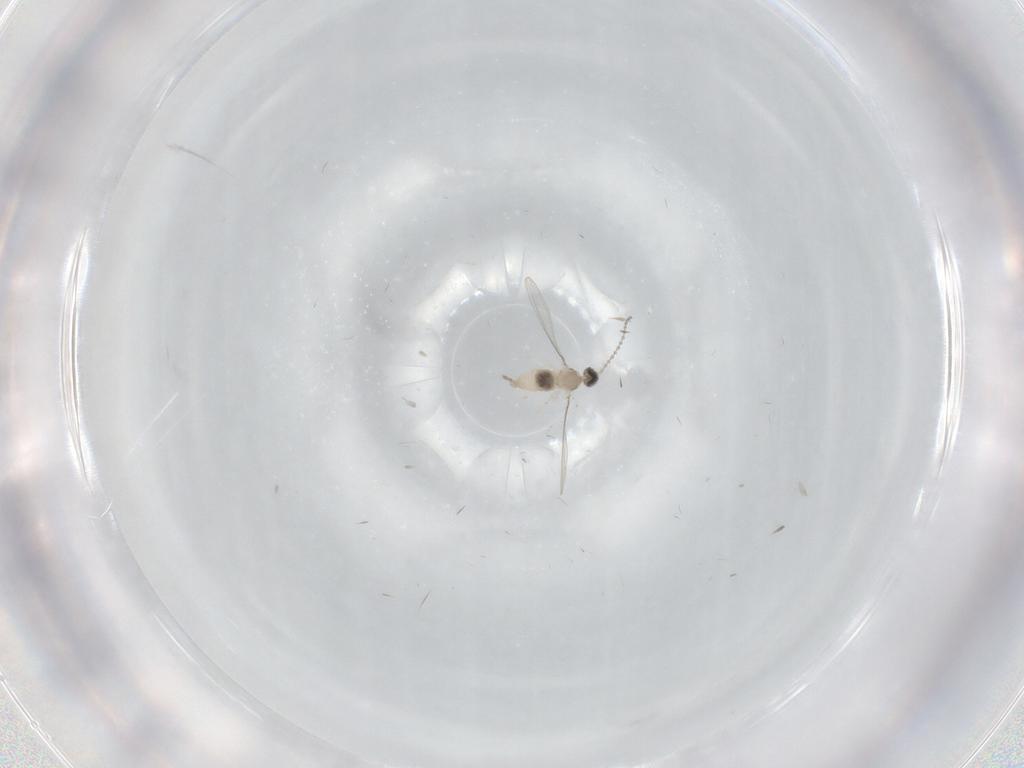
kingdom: Animalia
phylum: Arthropoda
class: Insecta
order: Diptera
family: Cecidomyiidae
